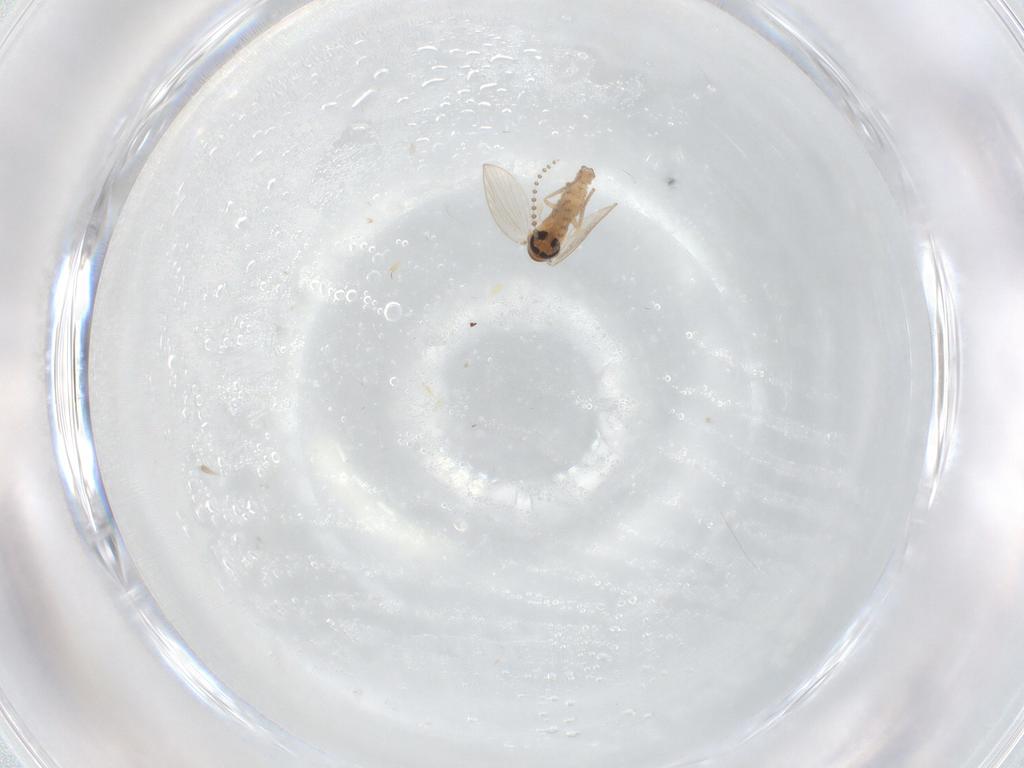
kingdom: Animalia
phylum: Arthropoda
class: Insecta
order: Diptera
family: Psychodidae
